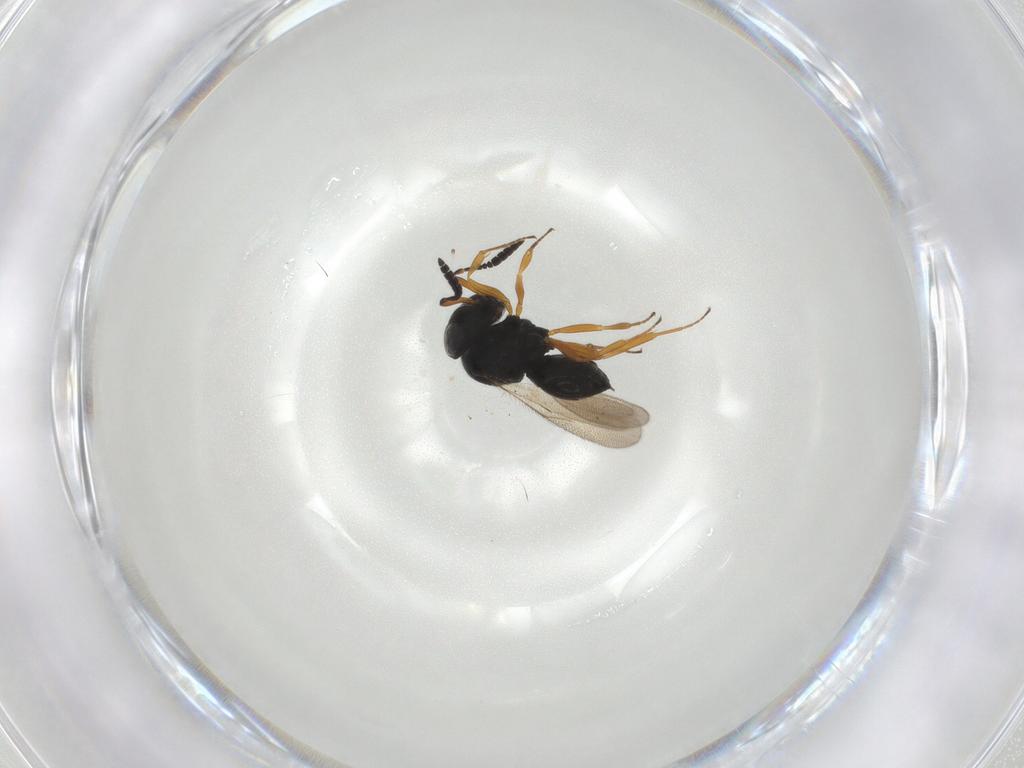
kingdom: Animalia
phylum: Arthropoda
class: Insecta
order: Hymenoptera
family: Scelionidae
